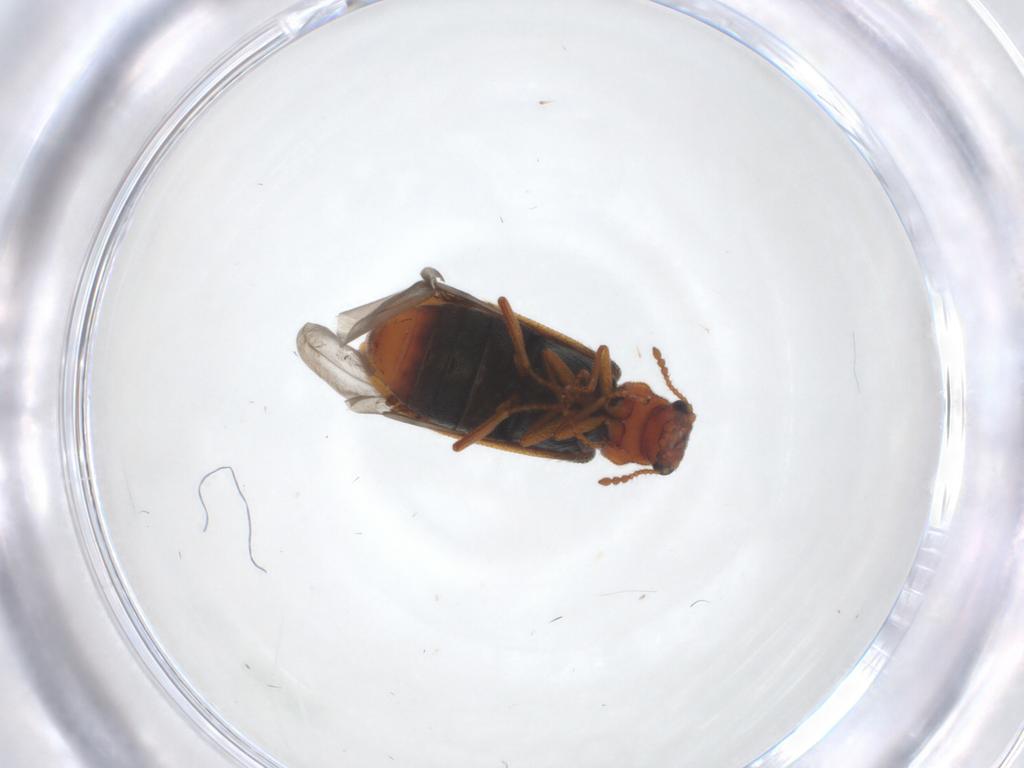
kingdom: Animalia
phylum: Arthropoda
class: Insecta
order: Coleoptera
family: Melyridae
